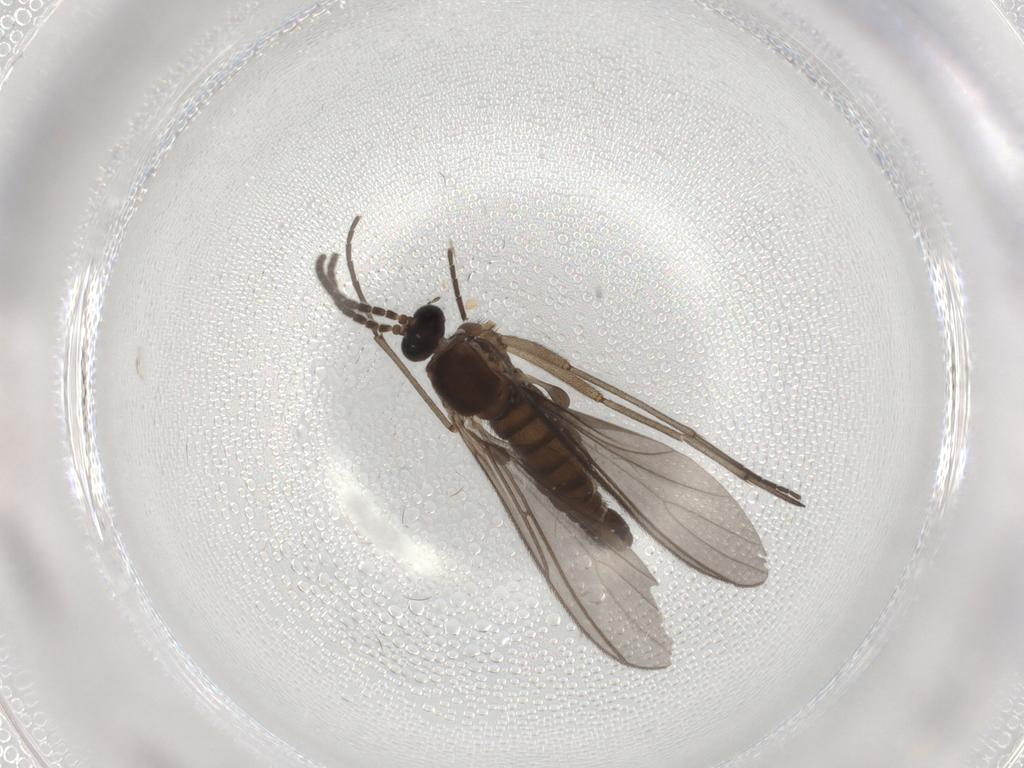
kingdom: Animalia
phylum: Arthropoda
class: Insecta
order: Diptera
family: Sciaridae
